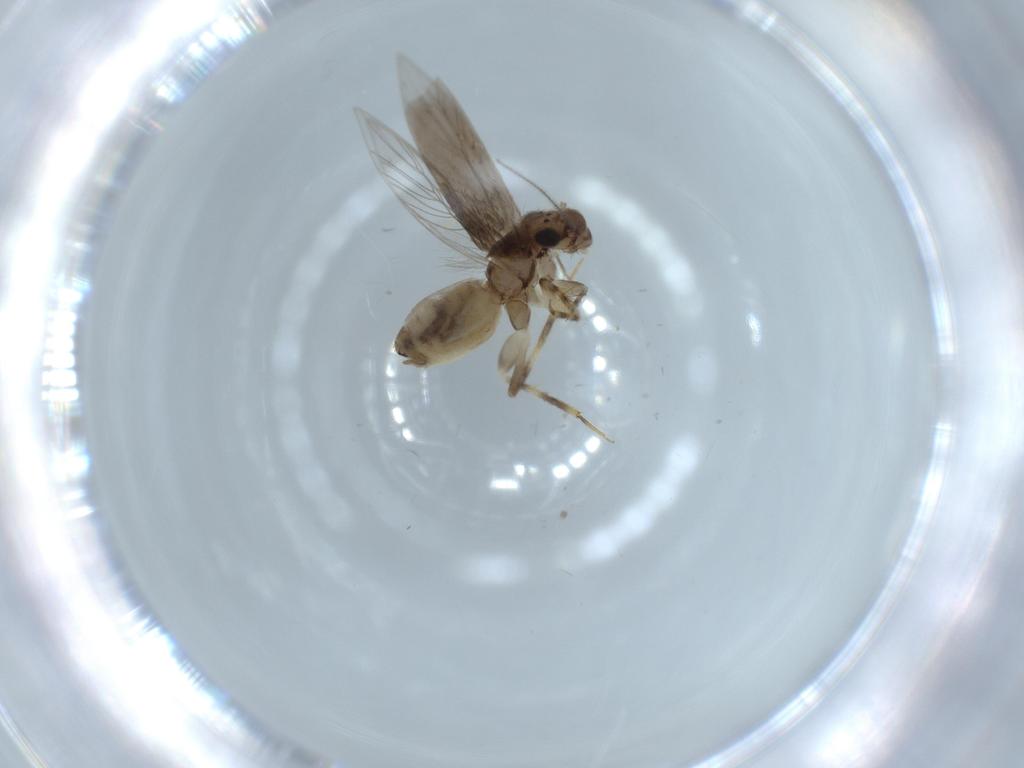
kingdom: Animalia
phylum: Arthropoda
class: Insecta
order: Psocodea
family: Lepidopsocidae
